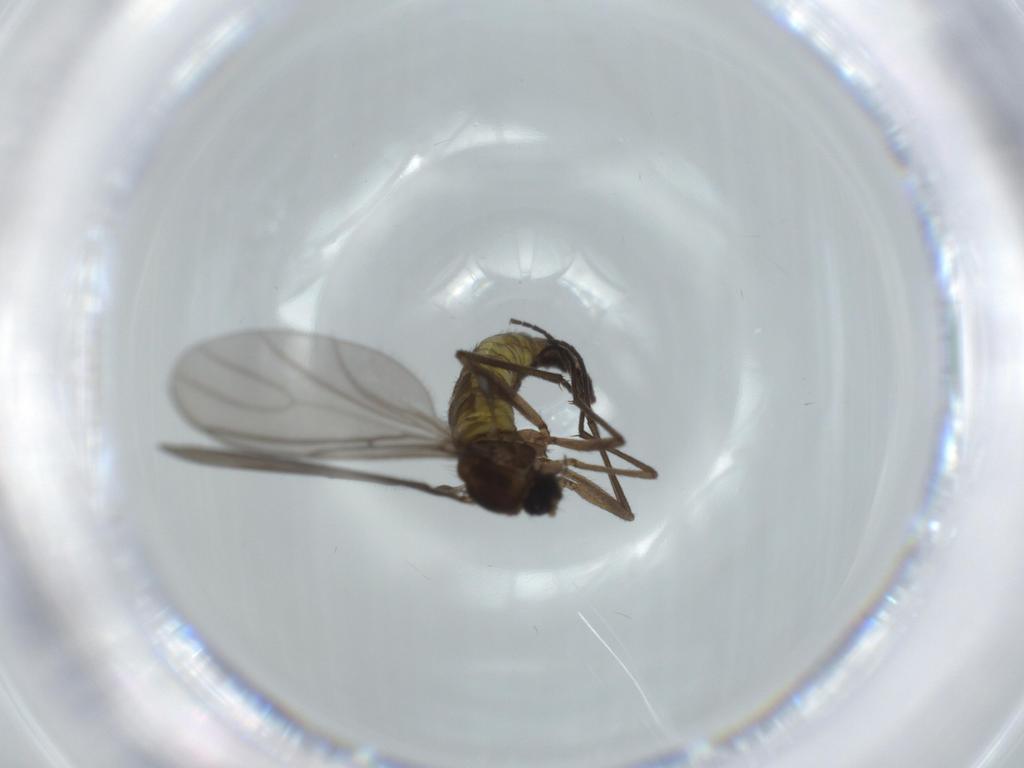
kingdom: Animalia
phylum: Arthropoda
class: Insecta
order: Diptera
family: Sciaridae
